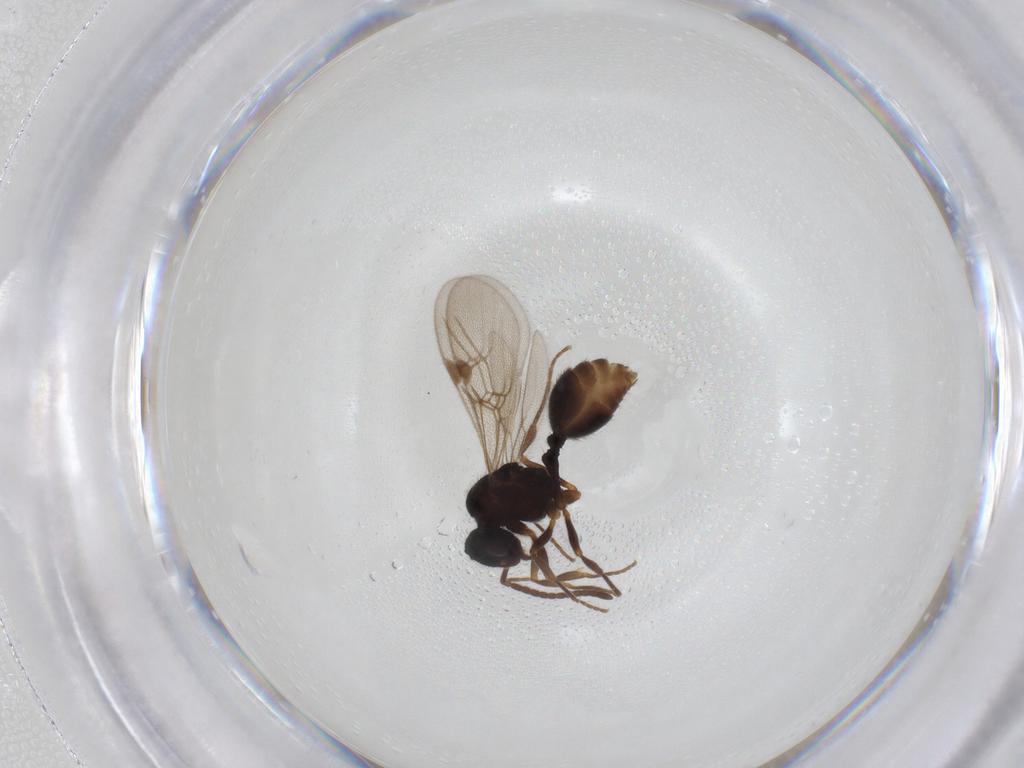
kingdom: Animalia
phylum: Arthropoda
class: Insecta
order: Hymenoptera
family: Formicidae
